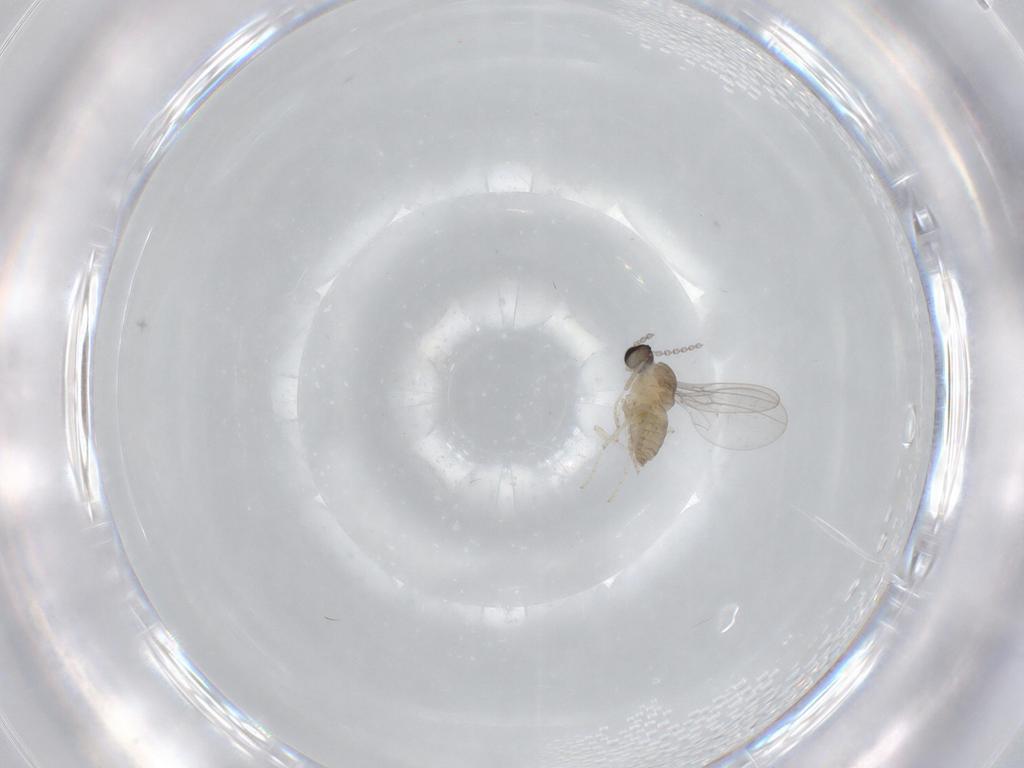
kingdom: Animalia
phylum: Arthropoda
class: Insecta
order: Diptera
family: Cecidomyiidae
